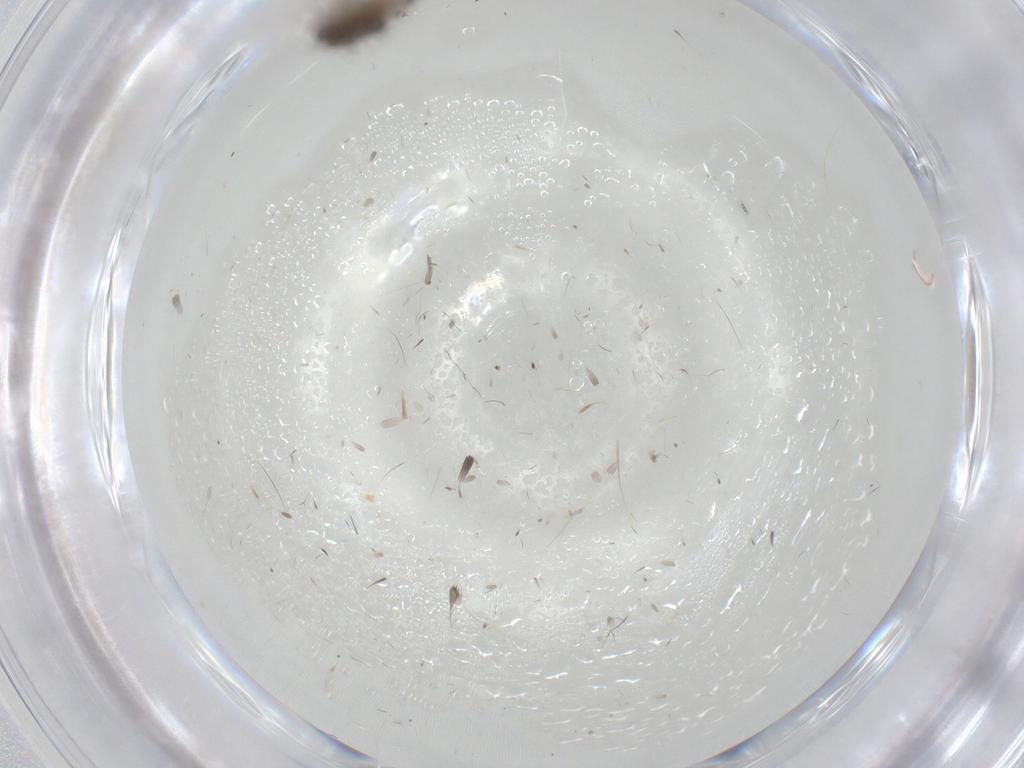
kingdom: Animalia
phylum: Arthropoda
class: Insecta
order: Hymenoptera
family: Eulophidae
